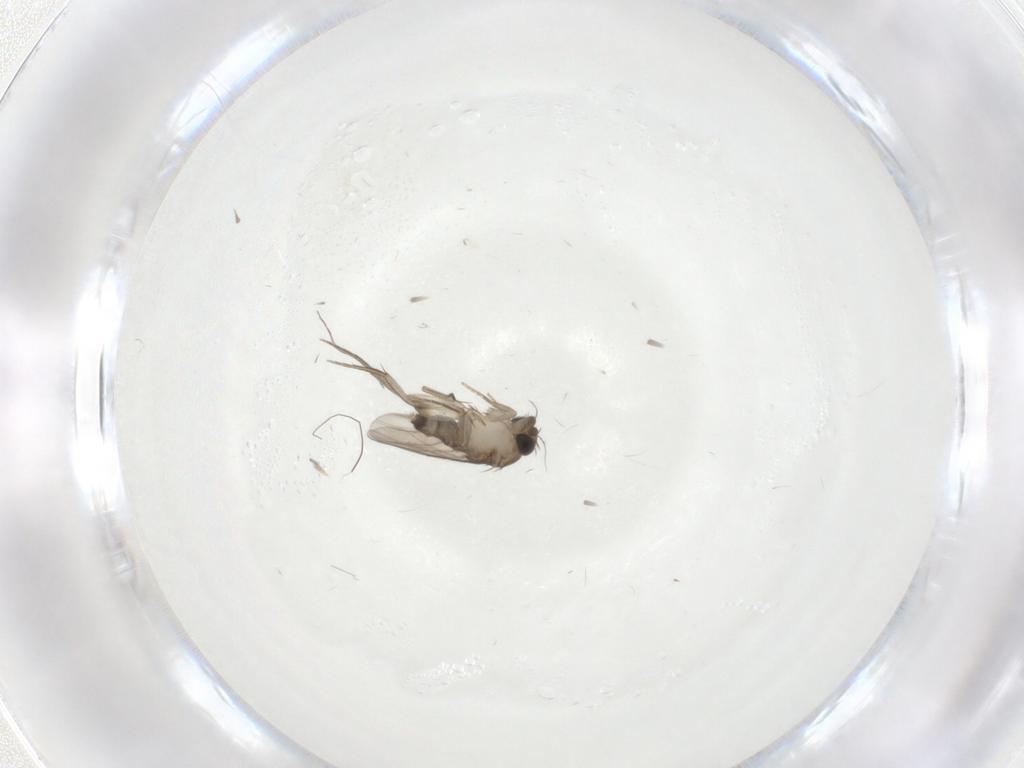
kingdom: Animalia
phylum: Arthropoda
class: Insecta
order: Diptera
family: Phoridae
